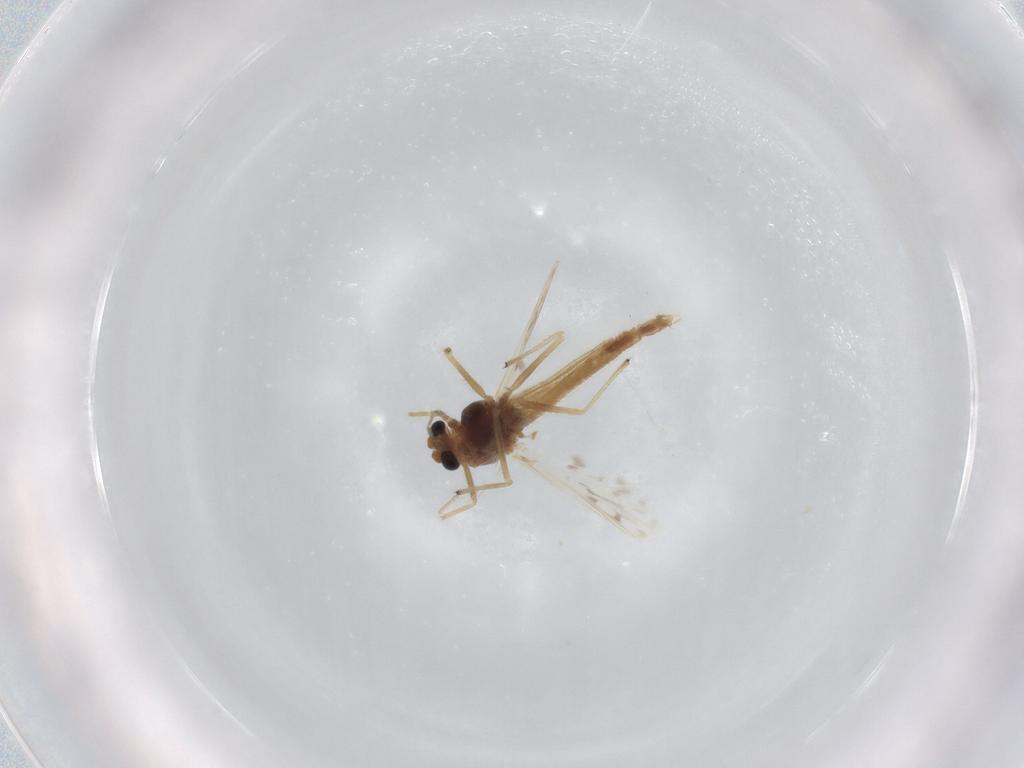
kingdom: Animalia
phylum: Arthropoda
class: Insecta
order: Diptera
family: Chironomidae
